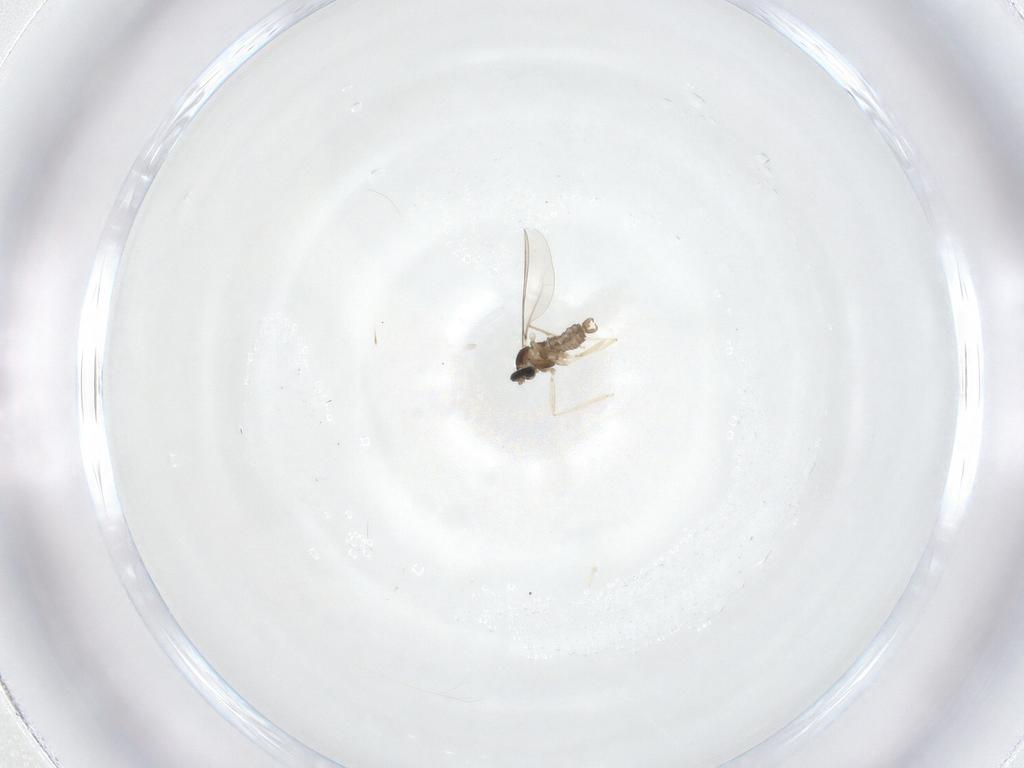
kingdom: Animalia
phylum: Arthropoda
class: Insecta
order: Diptera
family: Cecidomyiidae
